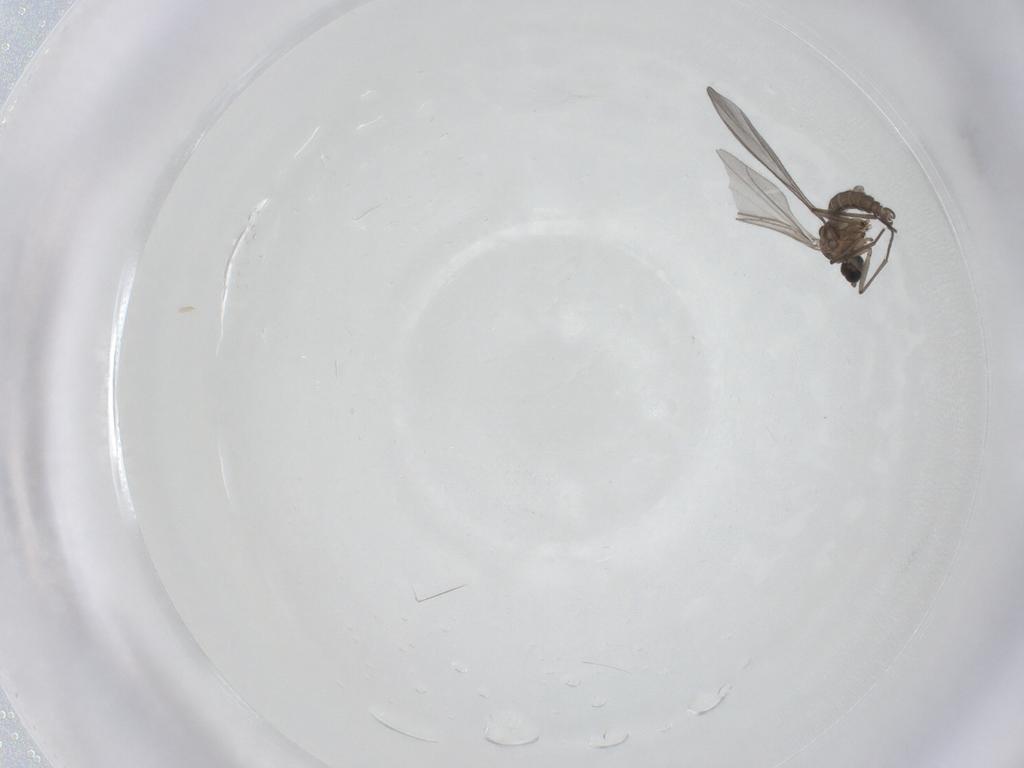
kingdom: Animalia
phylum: Arthropoda
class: Insecta
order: Diptera
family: Sciaridae
